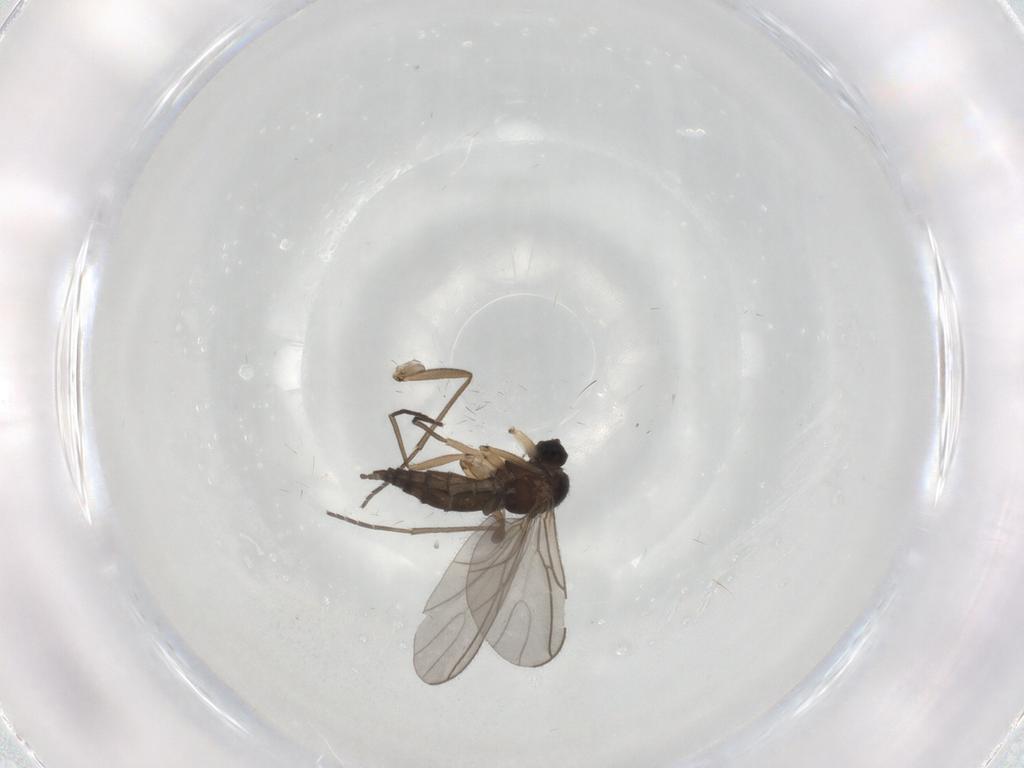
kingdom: Animalia
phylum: Arthropoda
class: Insecta
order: Diptera
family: Sciaridae
